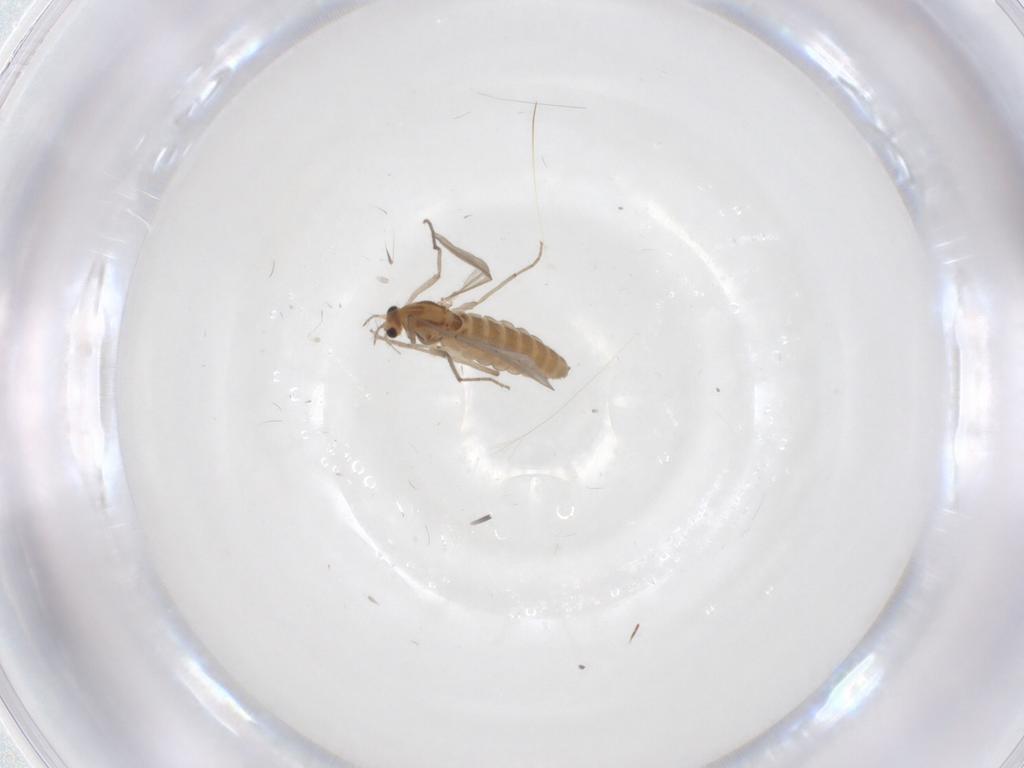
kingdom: Animalia
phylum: Arthropoda
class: Insecta
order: Diptera
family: Chironomidae
